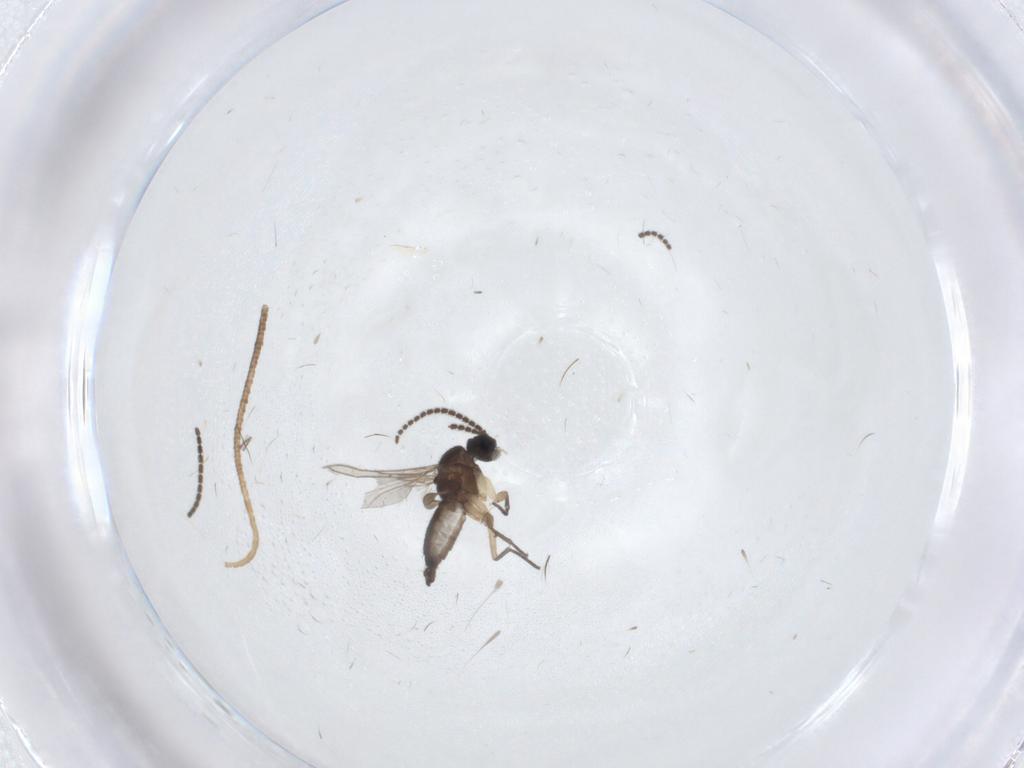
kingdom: Animalia
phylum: Arthropoda
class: Insecta
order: Diptera
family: Sciaridae
